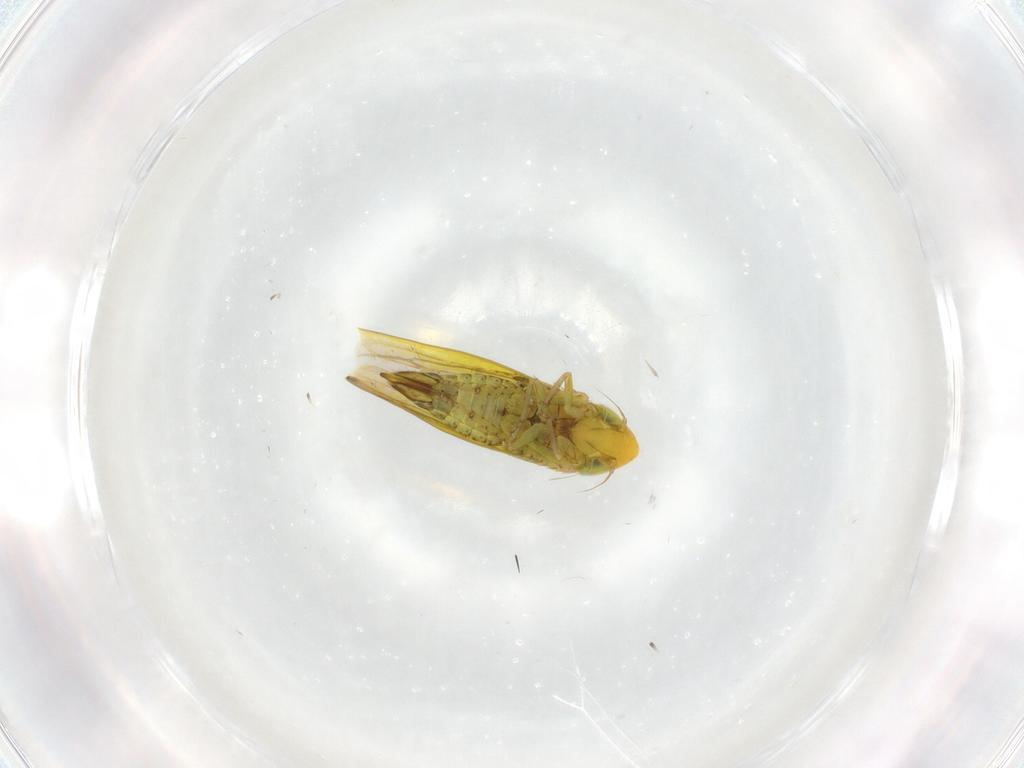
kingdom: Animalia
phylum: Arthropoda
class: Insecta
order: Hemiptera
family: Cicadellidae
